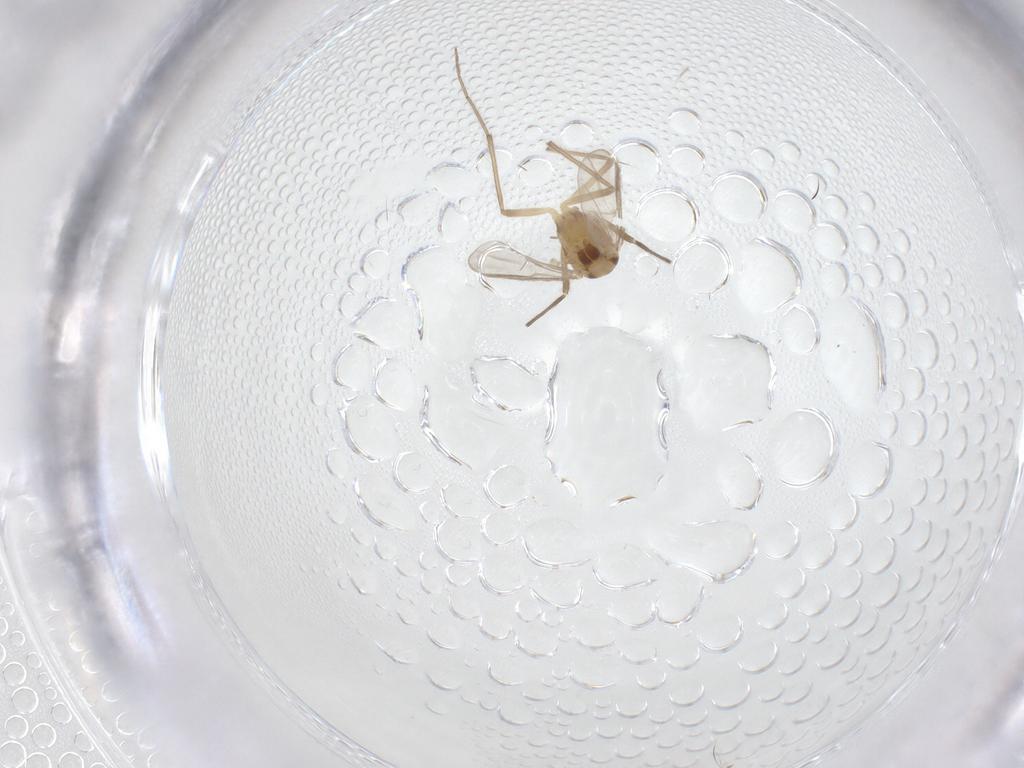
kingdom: Animalia
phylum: Arthropoda
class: Insecta
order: Diptera
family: Chironomidae
